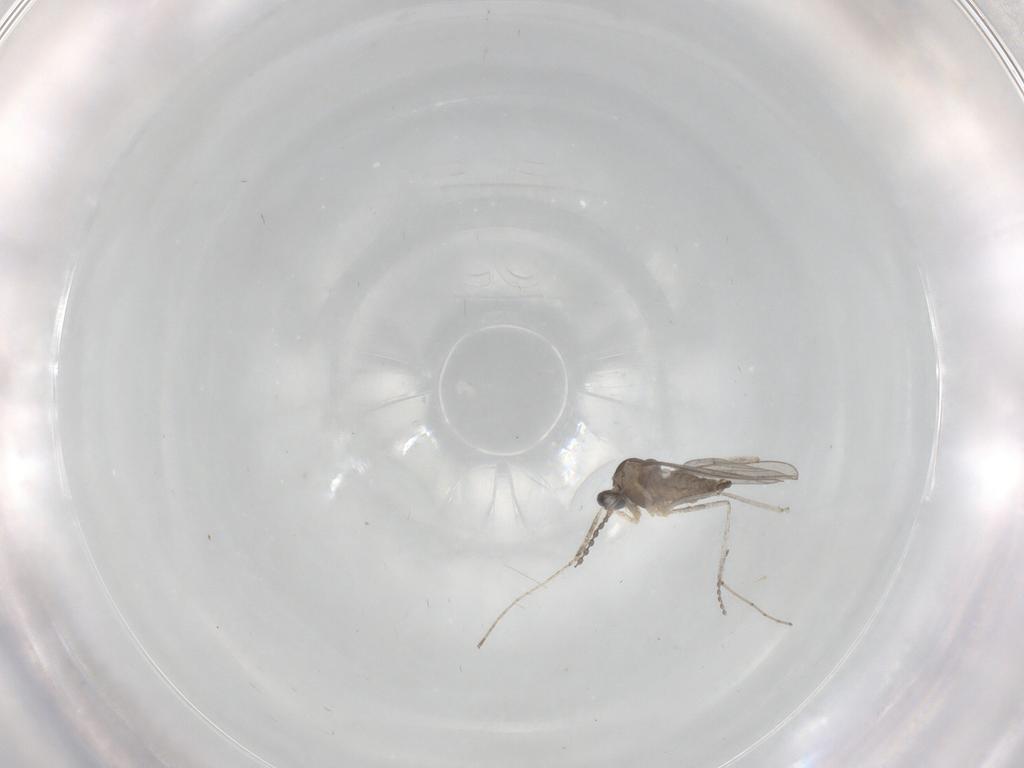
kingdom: Animalia
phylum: Arthropoda
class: Insecta
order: Diptera
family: Cecidomyiidae
